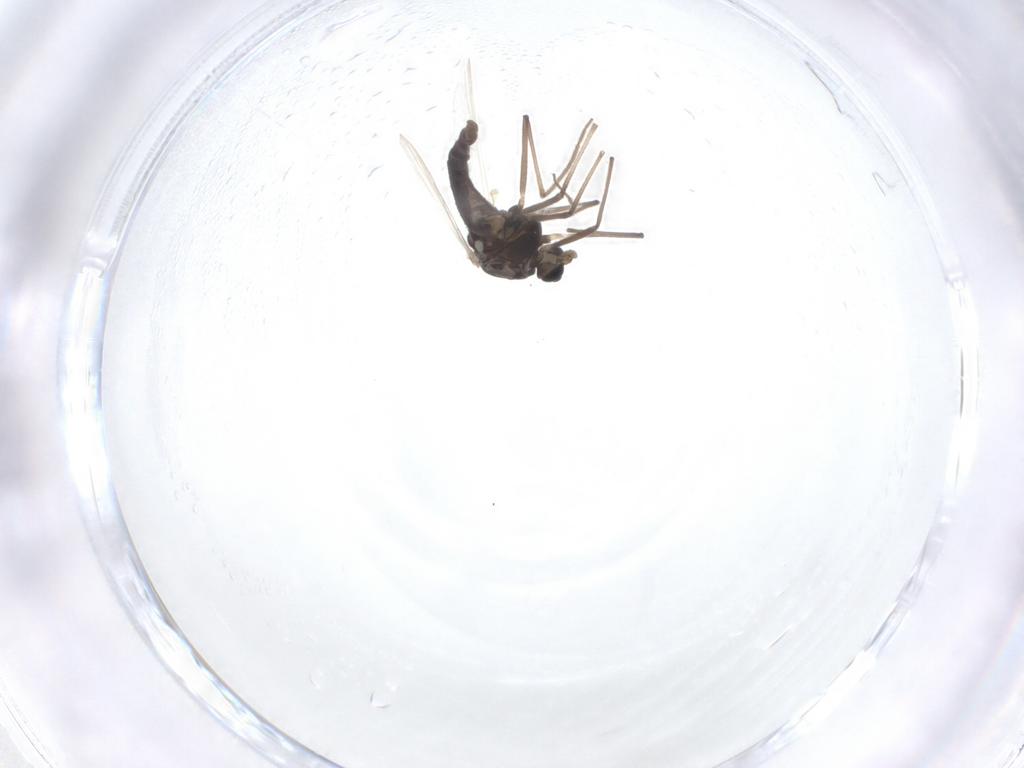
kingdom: Animalia
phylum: Arthropoda
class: Insecta
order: Diptera
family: Chironomidae
